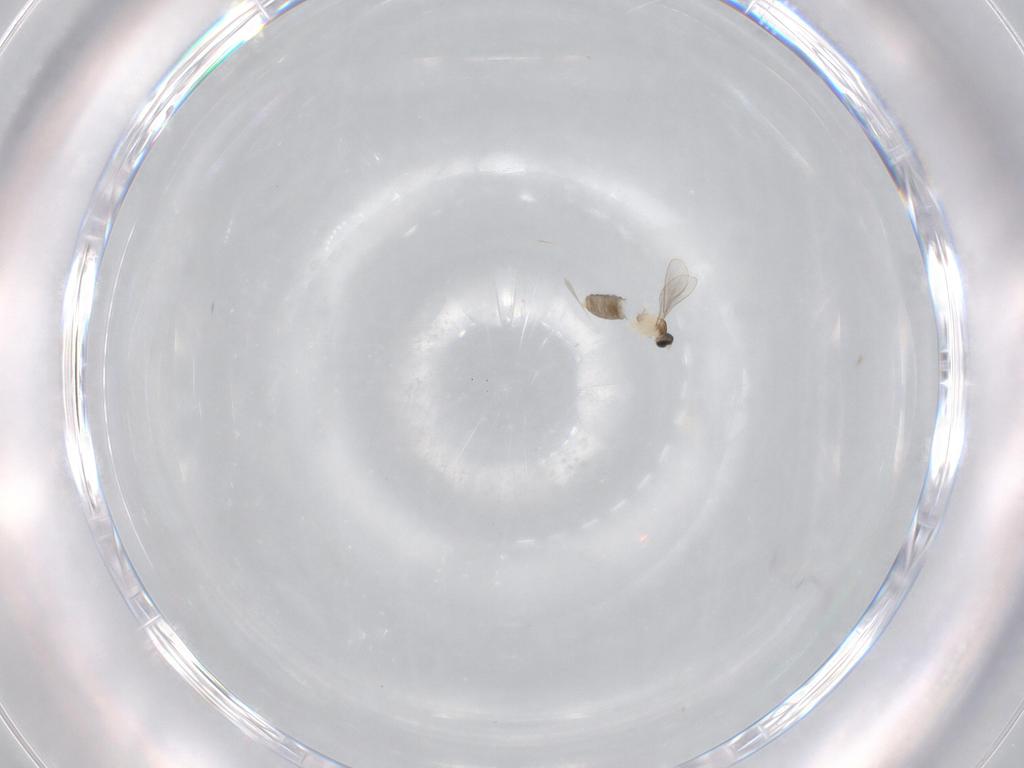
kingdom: Animalia
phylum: Arthropoda
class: Insecta
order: Diptera
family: Cecidomyiidae
